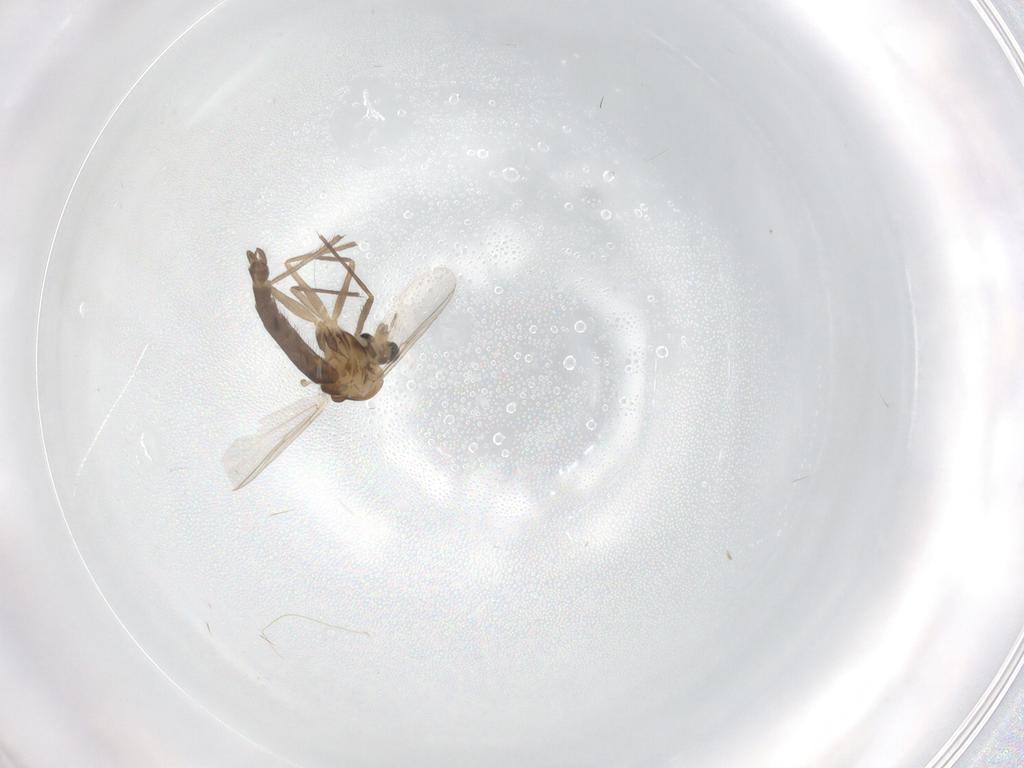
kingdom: Animalia
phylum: Arthropoda
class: Insecta
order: Diptera
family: Chironomidae
